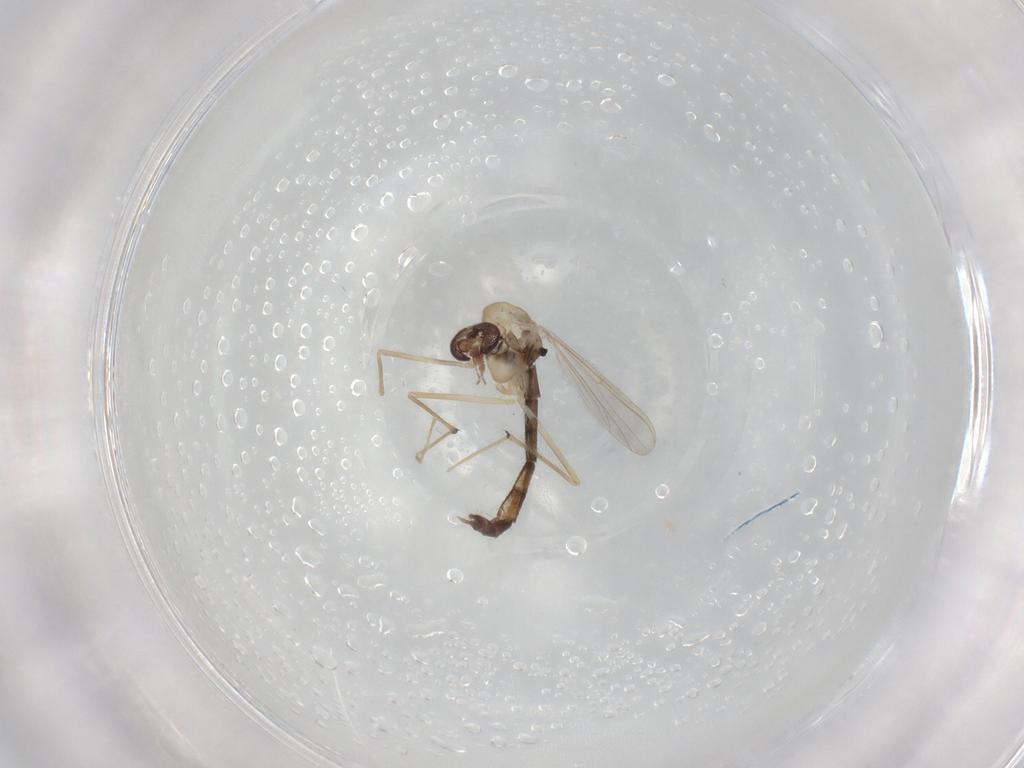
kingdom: Animalia
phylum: Arthropoda
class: Insecta
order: Diptera
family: Chironomidae
